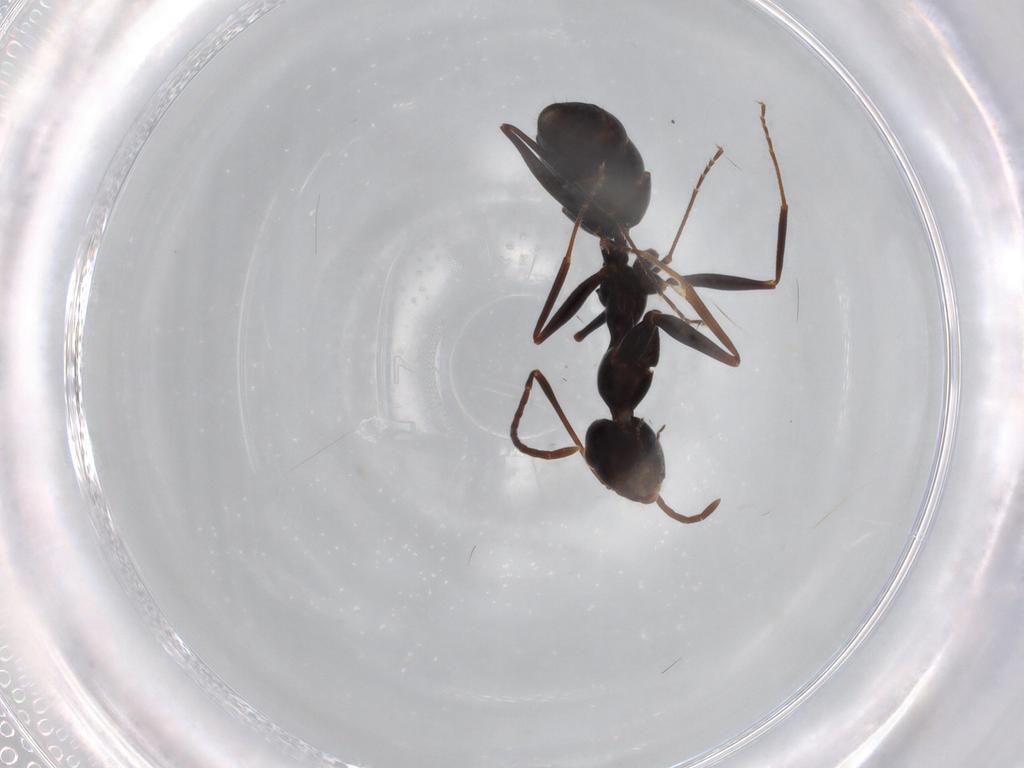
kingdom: Animalia
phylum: Arthropoda
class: Insecta
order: Hymenoptera
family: Formicidae
